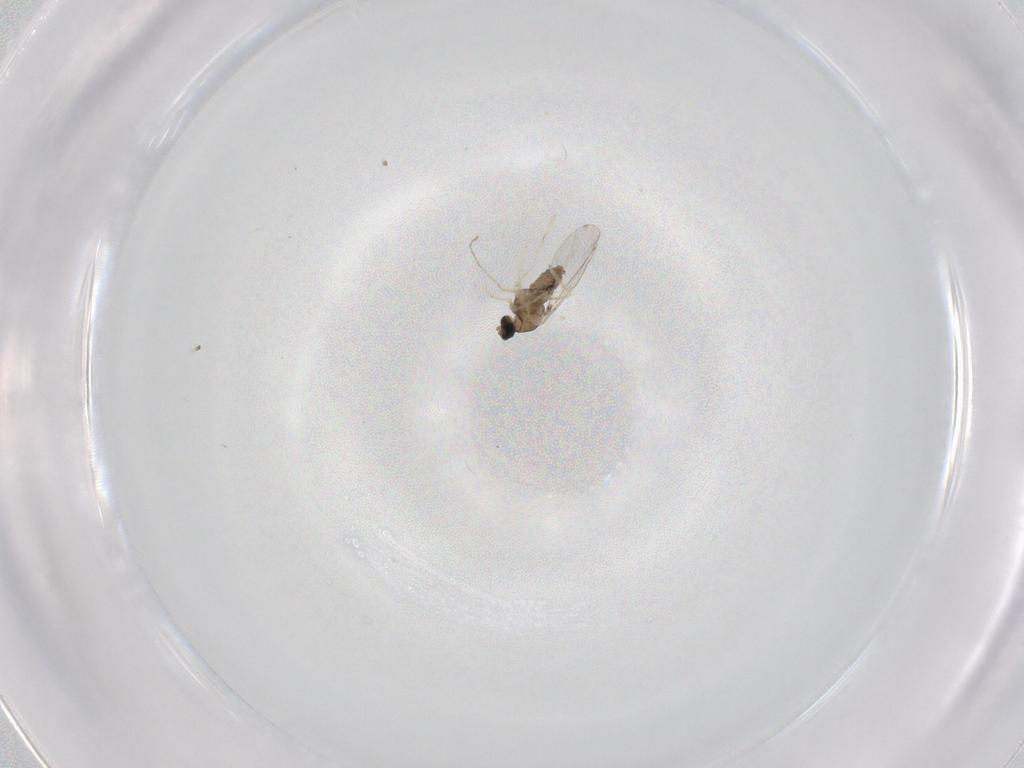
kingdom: Animalia
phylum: Arthropoda
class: Insecta
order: Diptera
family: Cecidomyiidae
